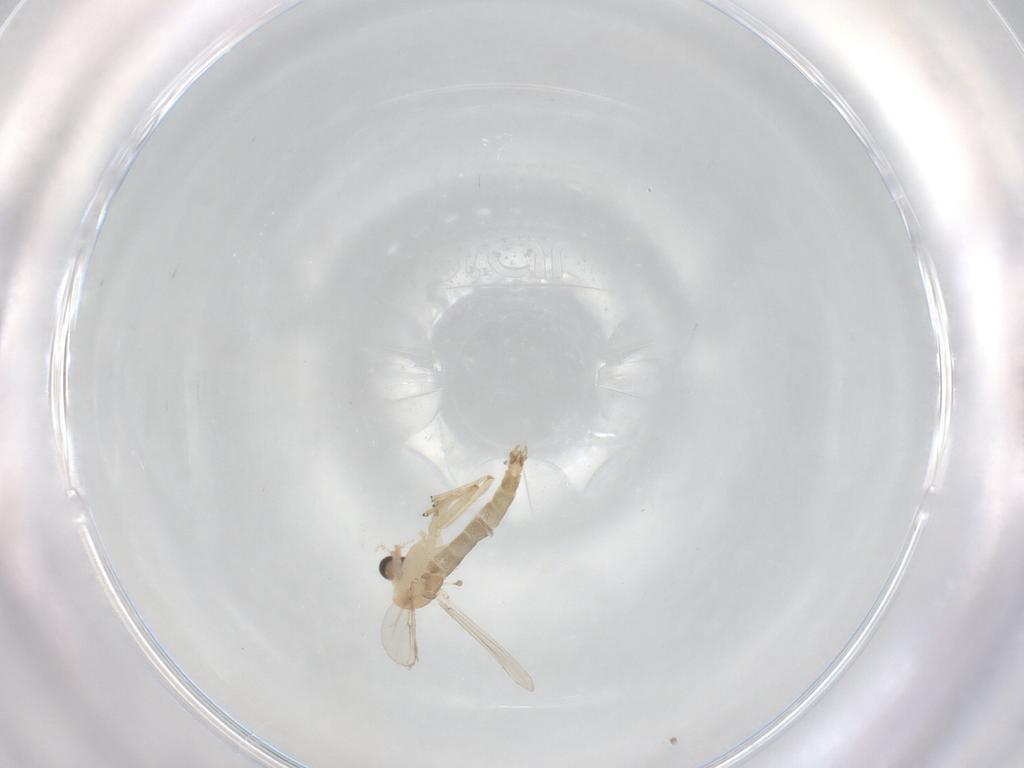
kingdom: Animalia
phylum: Arthropoda
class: Insecta
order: Diptera
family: Chironomidae
